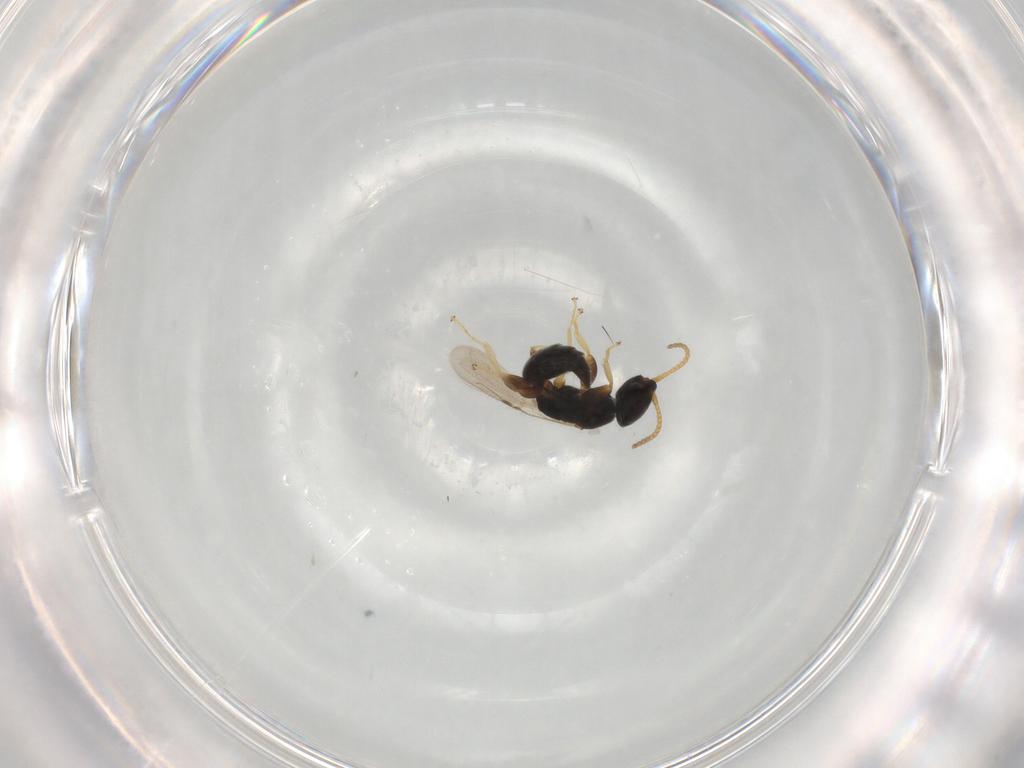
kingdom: Animalia
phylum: Arthropoda
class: Insecta
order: Hymenoptera
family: Bethylidae
